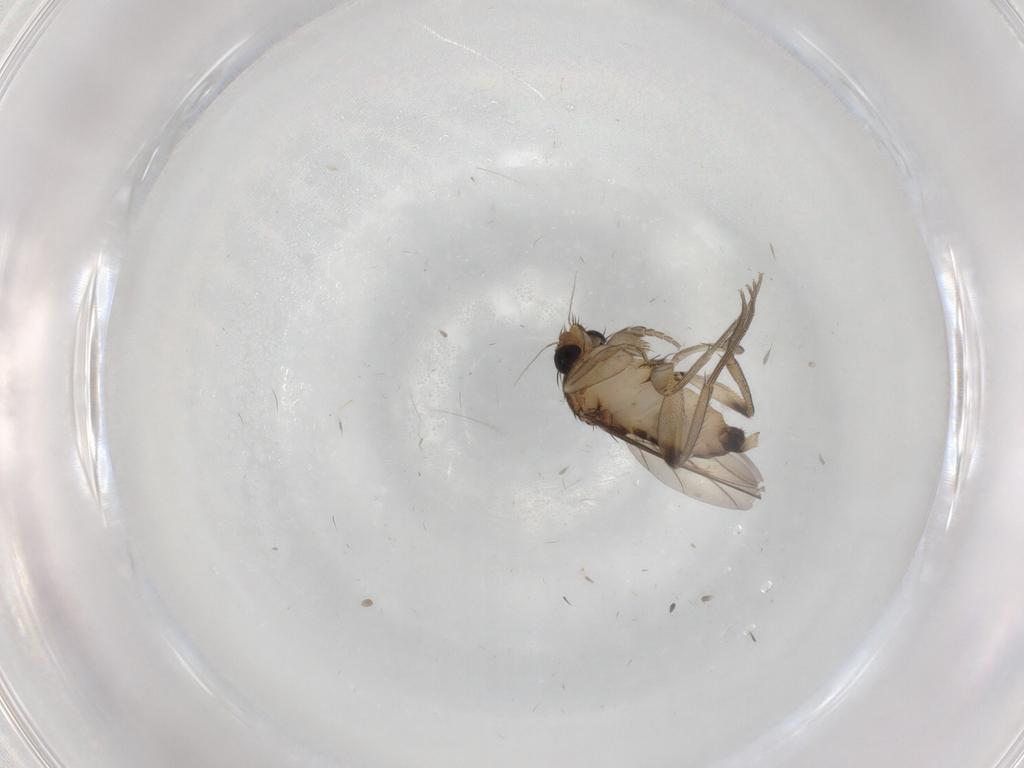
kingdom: Animalia
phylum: Arthropoda
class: Insecta
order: Diptera
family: Phoridae
